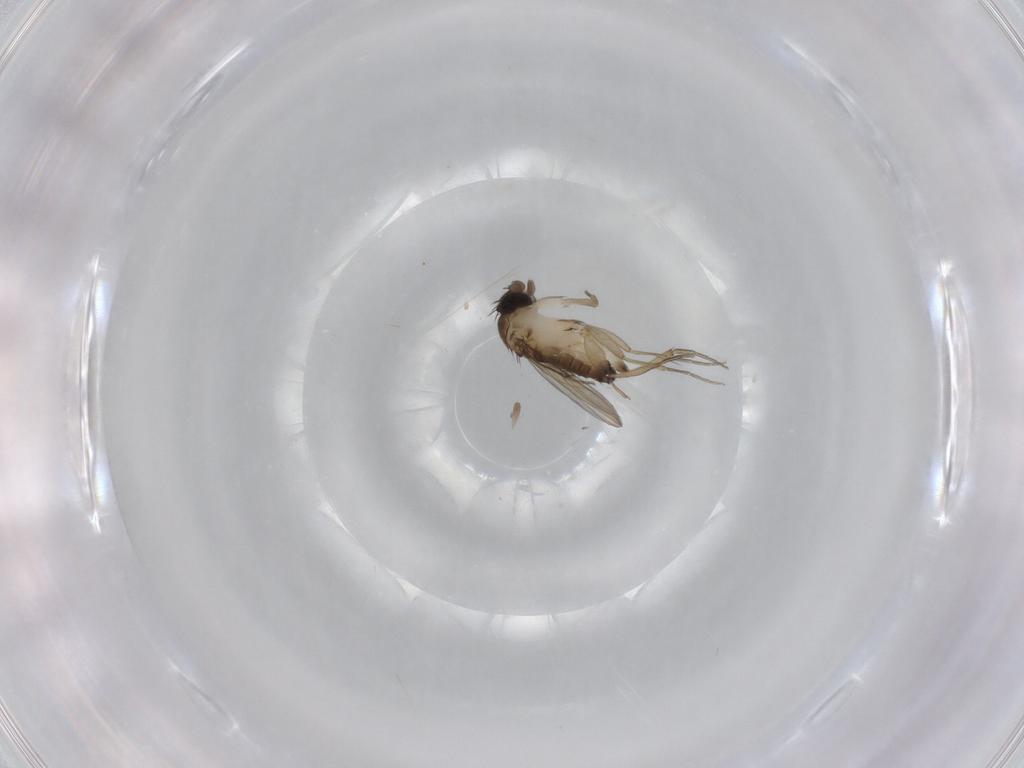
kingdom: Animalia
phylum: Arthropoda
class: Insecta
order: Diptera
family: Phoridae
